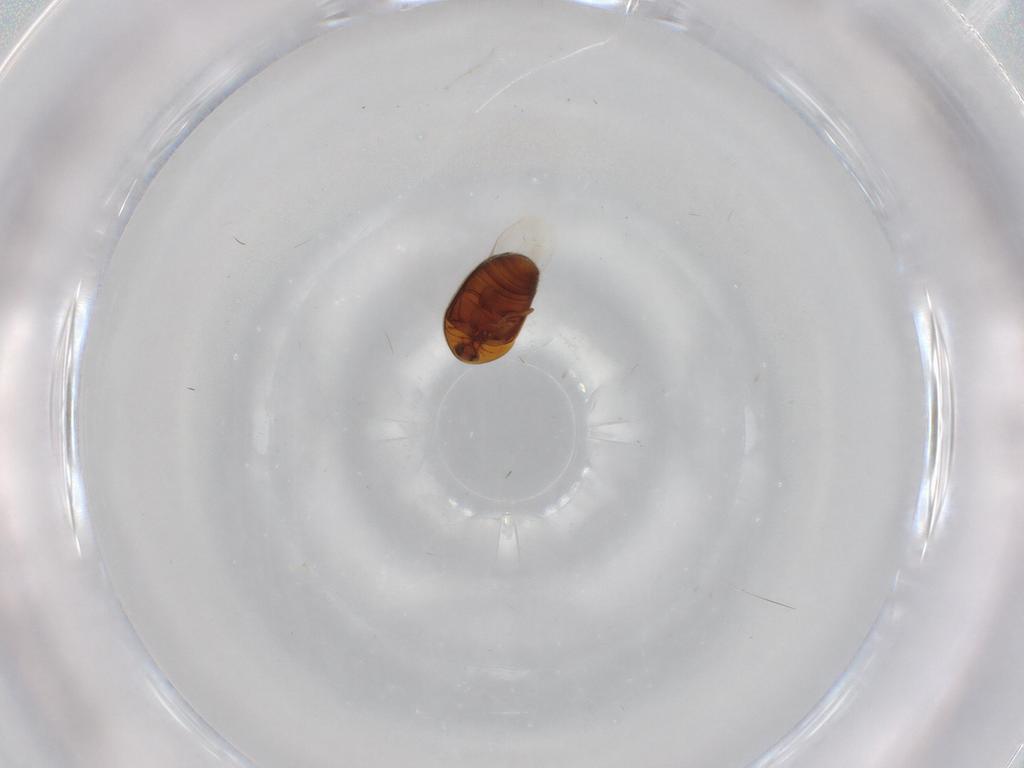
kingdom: Animalia
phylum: Arthropoda
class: Insecta
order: Coleoptera
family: Corylophidae
